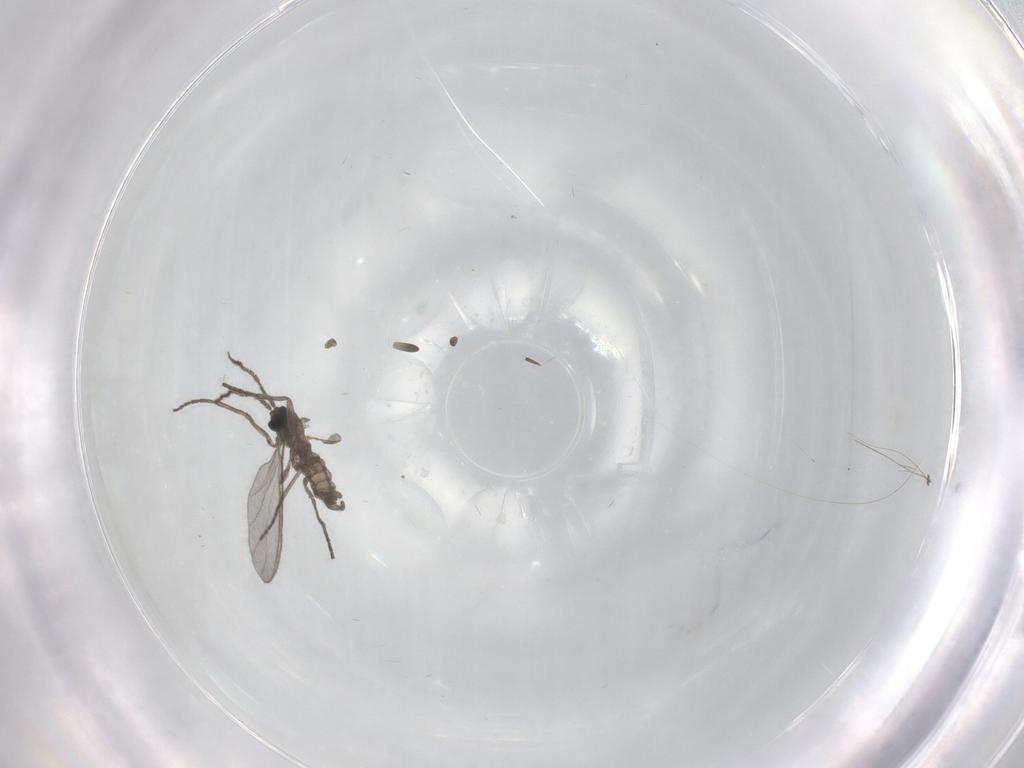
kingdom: Animalia
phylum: Arthropoda
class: Insecta
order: Diptera
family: Sciaridae
